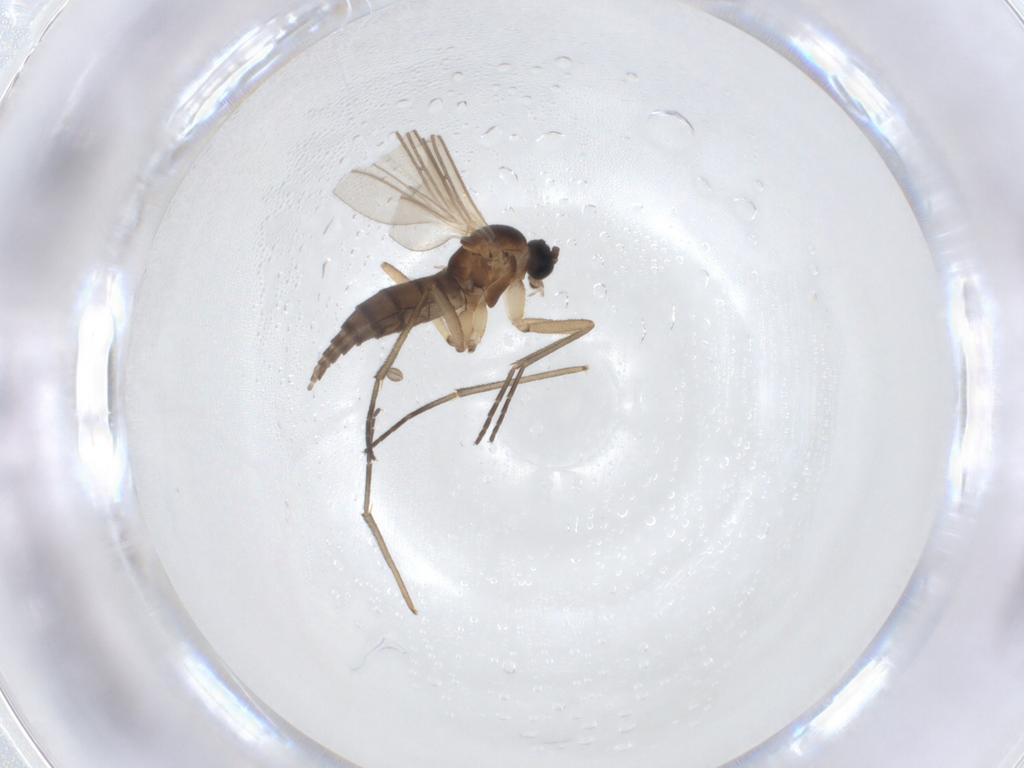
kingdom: Animalia
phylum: Arthropoda
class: Insecta
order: Diptera
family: Sciaridae
